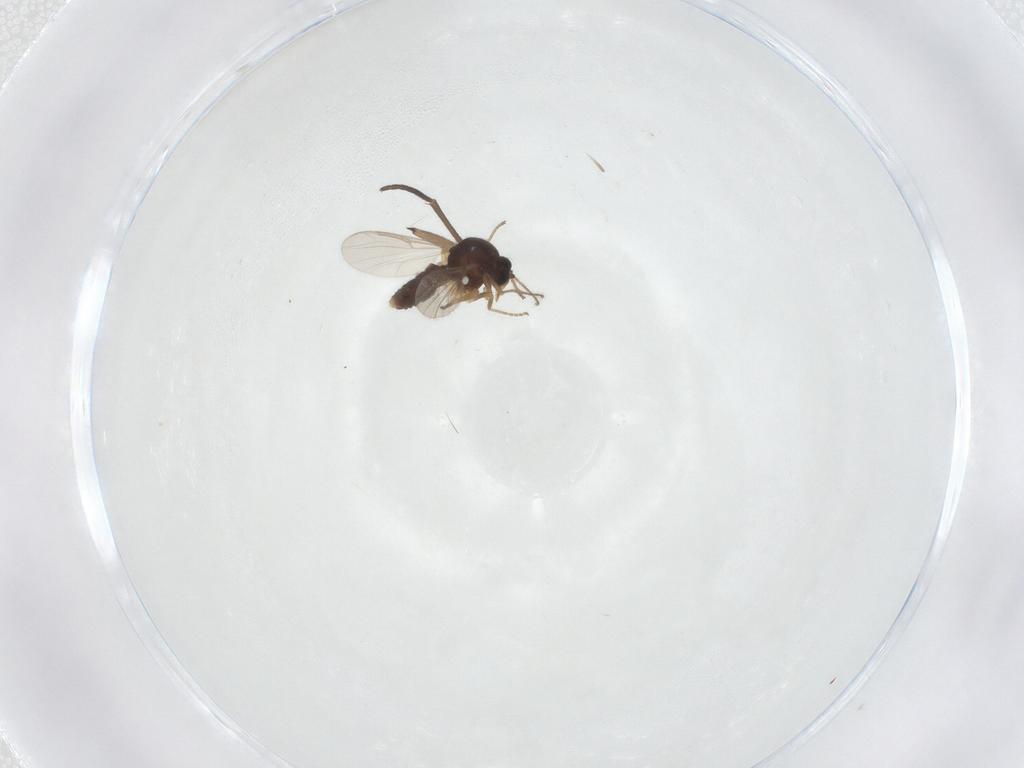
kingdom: Animalia
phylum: Arthropoda
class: Insecta
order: Diptera
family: Ceratopogonidae
